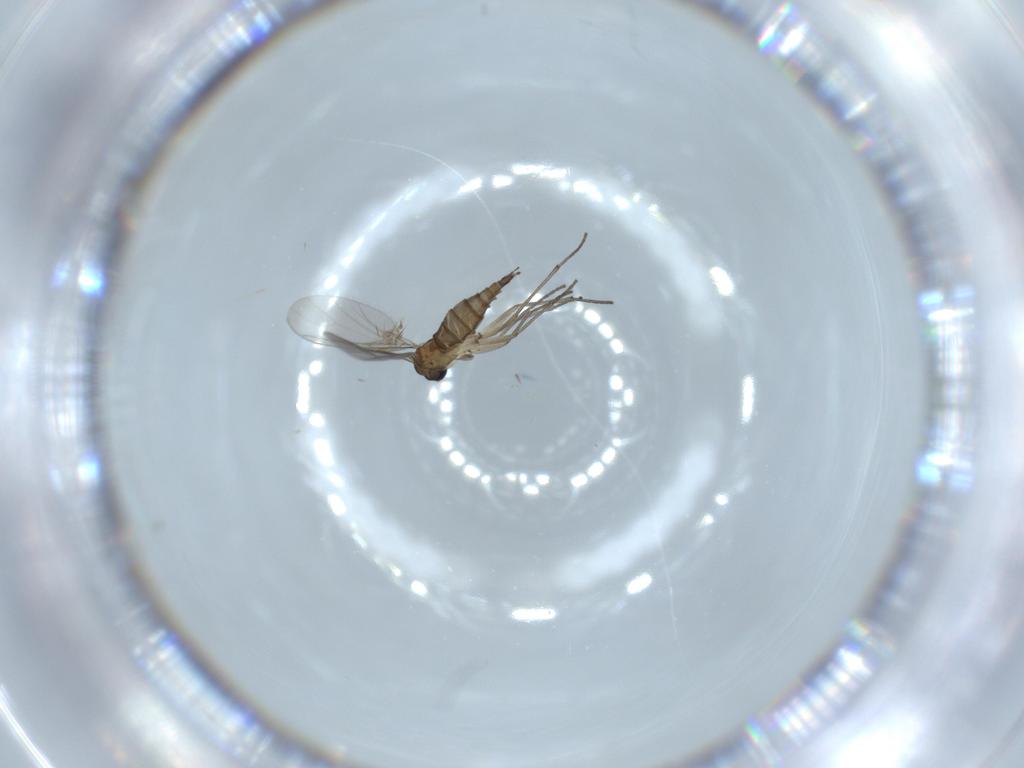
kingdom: Animalia
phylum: Arthropoda
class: Insecta
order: Diptera
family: Sciaridae
